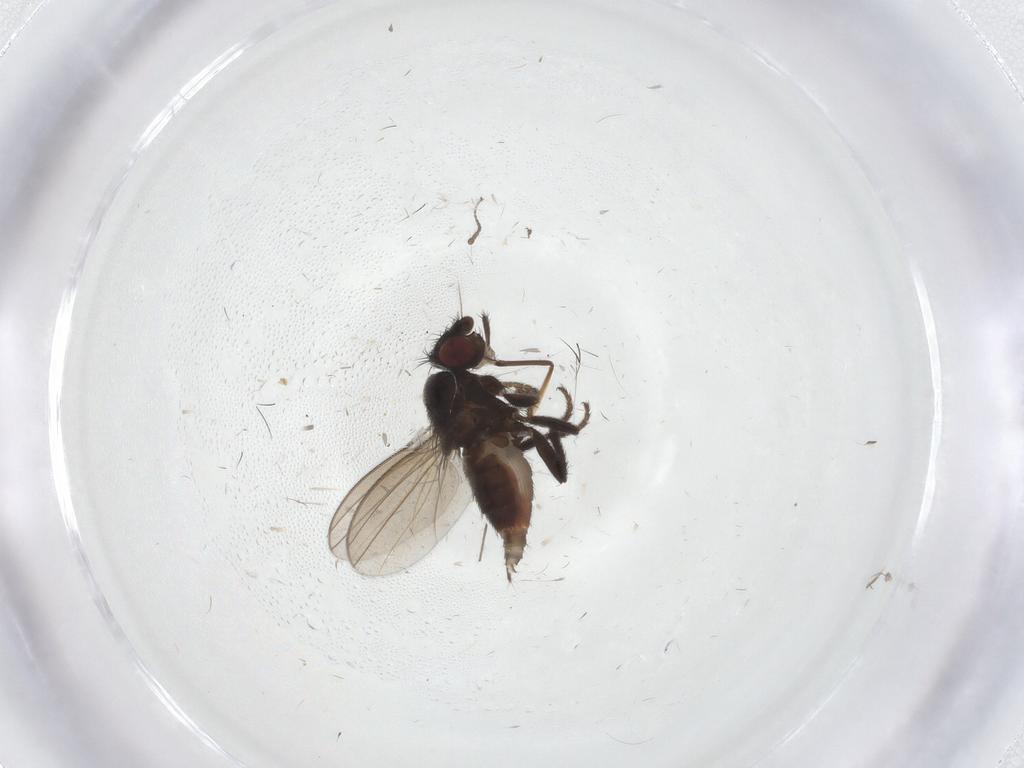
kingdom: Animalia
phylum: Arthropoda
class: Insecta
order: Diptera
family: Milichiidae
